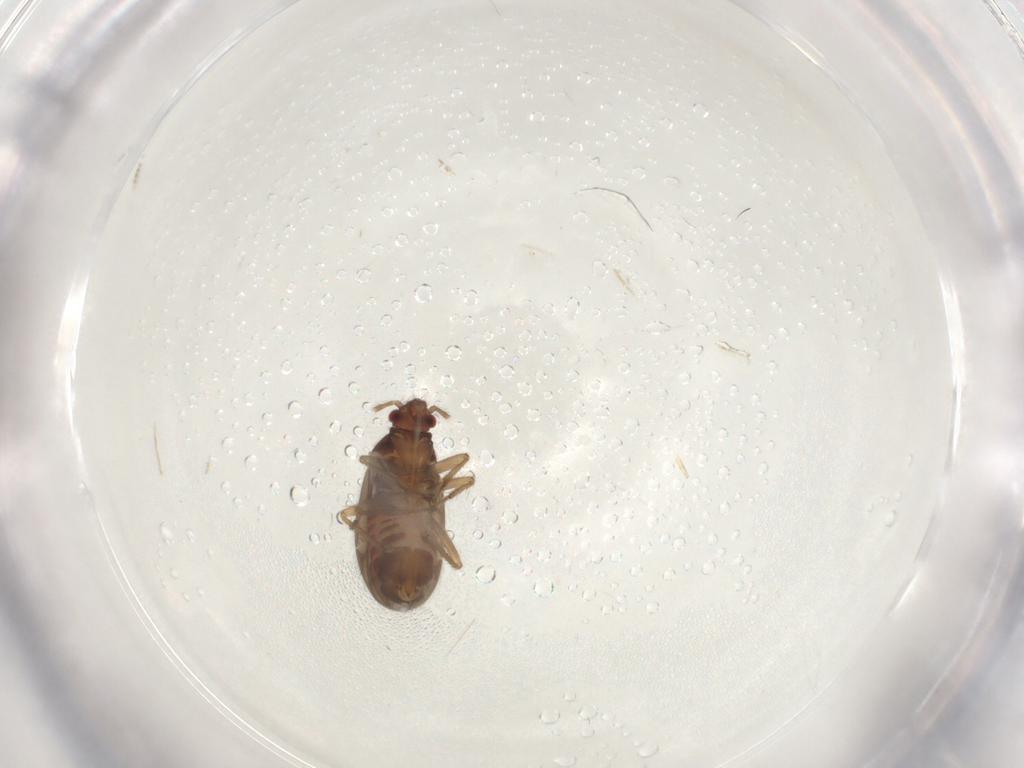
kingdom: Animalia
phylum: Arthropoda
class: Insecta
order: Hemiptera
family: Ceratocombidae
